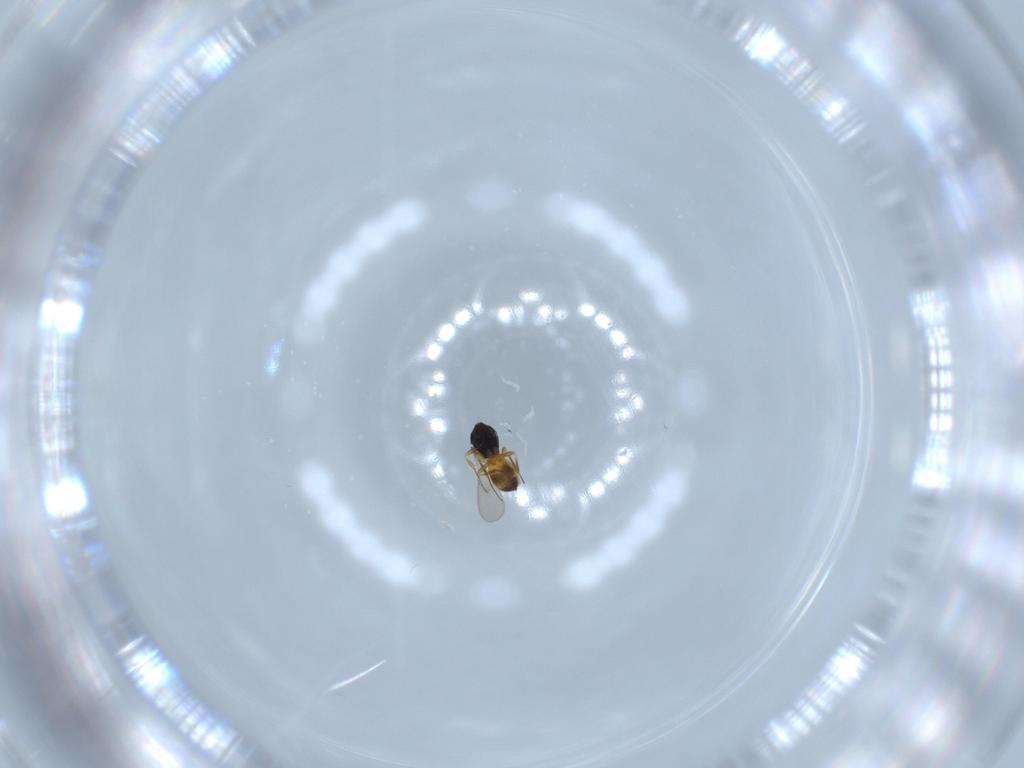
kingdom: Animalia
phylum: Arthropoda
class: Insecta
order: Hymenoptera
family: Scelionidae
